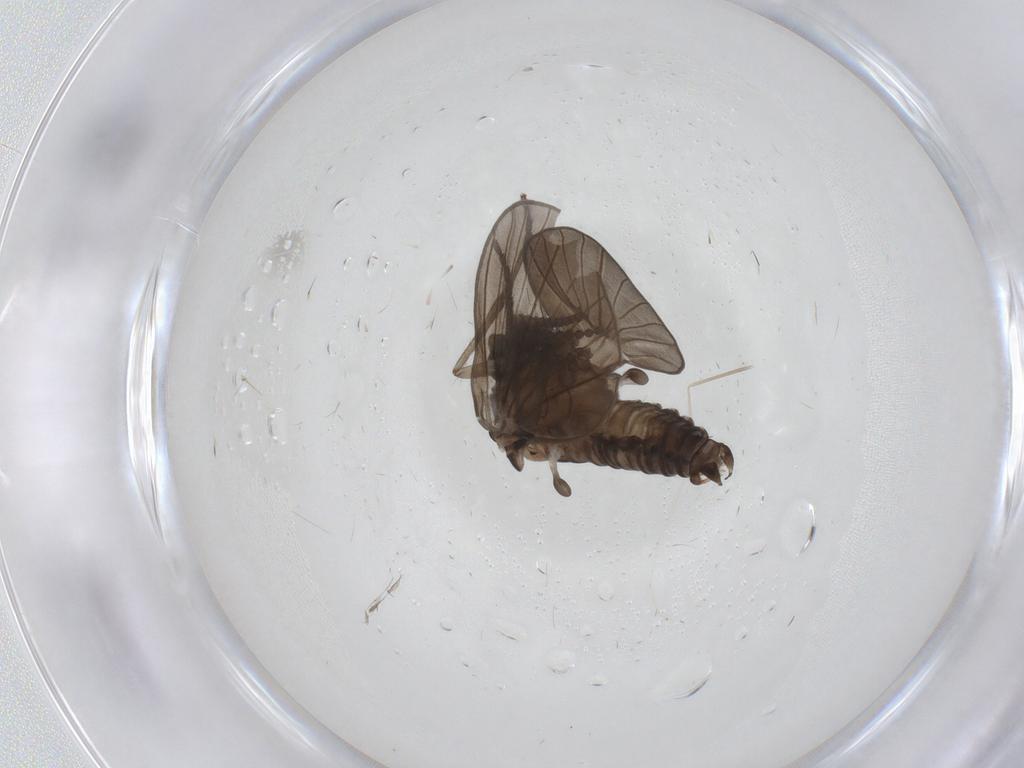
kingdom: Animalia
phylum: Arthropoda
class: Insecta
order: Diptera
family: Psychodidae
